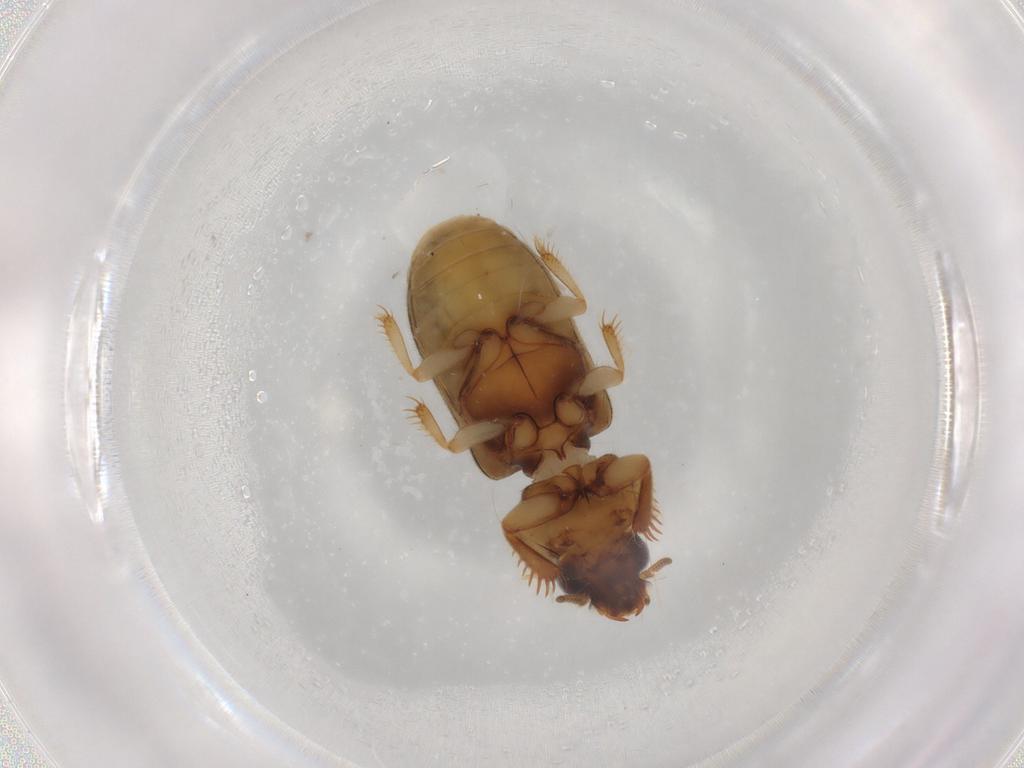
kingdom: Animalia
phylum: Arthropoda
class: Insecta
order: Coleoptera
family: Heteroceridae
